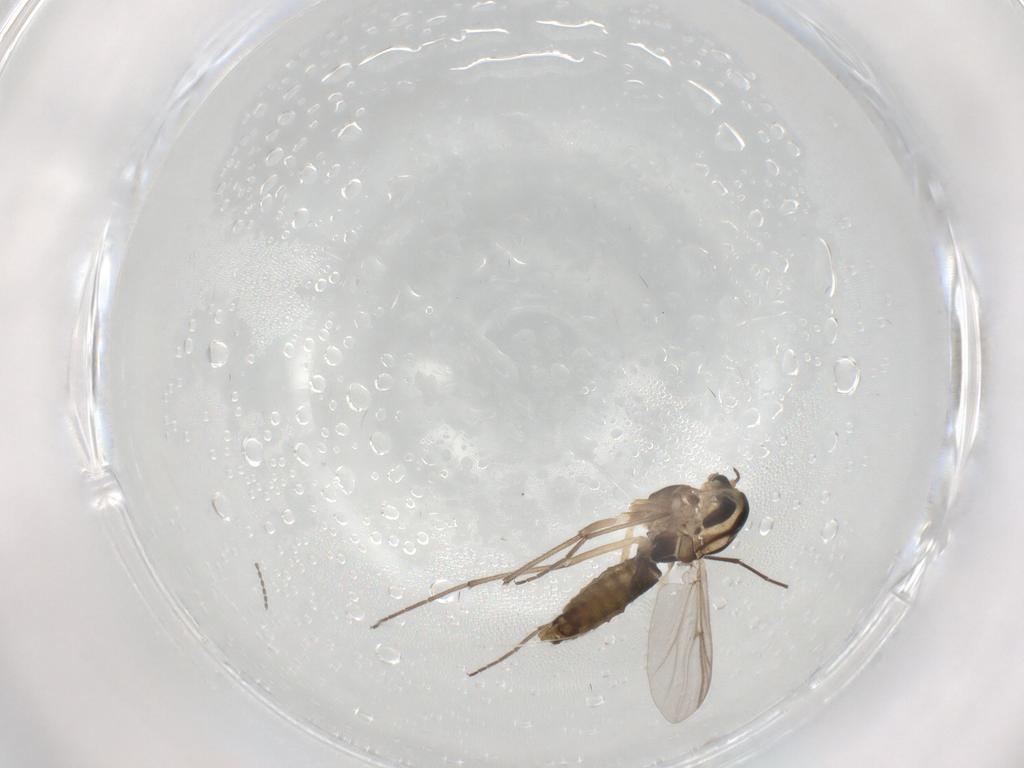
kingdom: Animalia
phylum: Arthropoda
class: Insecta
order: Diptera
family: Chironomidae
